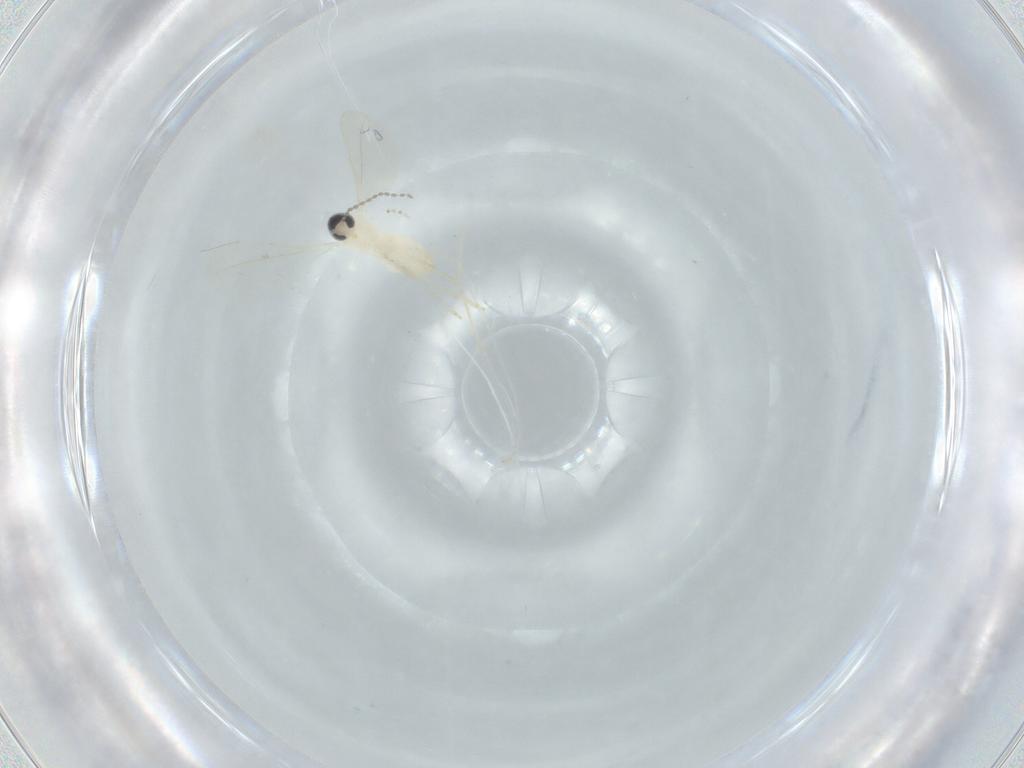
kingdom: Animalia
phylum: Arthropoda
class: Insecta
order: Diptera
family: Cecidomyiidae
